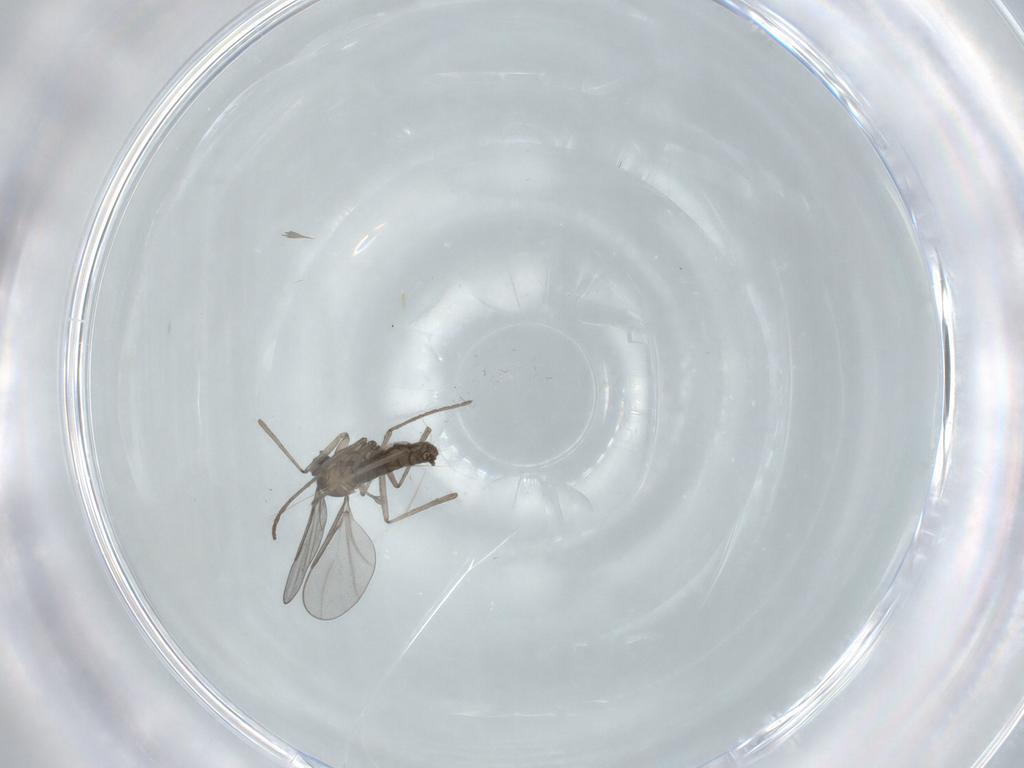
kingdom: Animalia
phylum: Arthropoda
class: Insecta
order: Diptera
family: Cecidomyiidae
